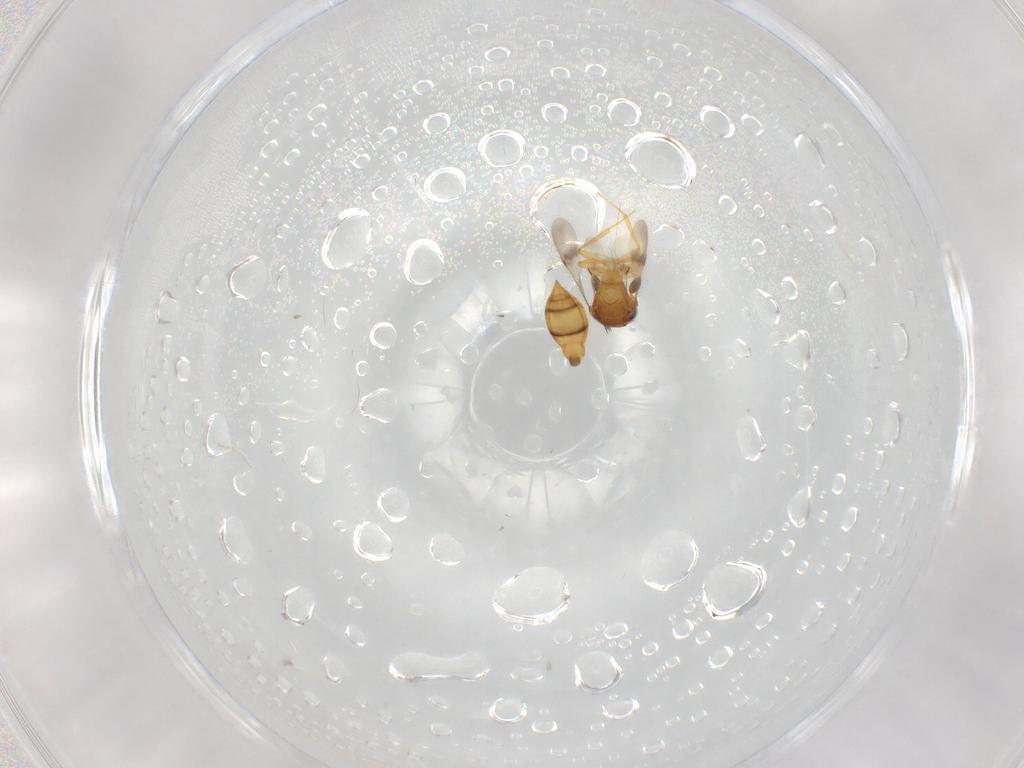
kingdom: Animalia
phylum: Arthropoda
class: Insecta
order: Hymenoptera
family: Scelionidae
